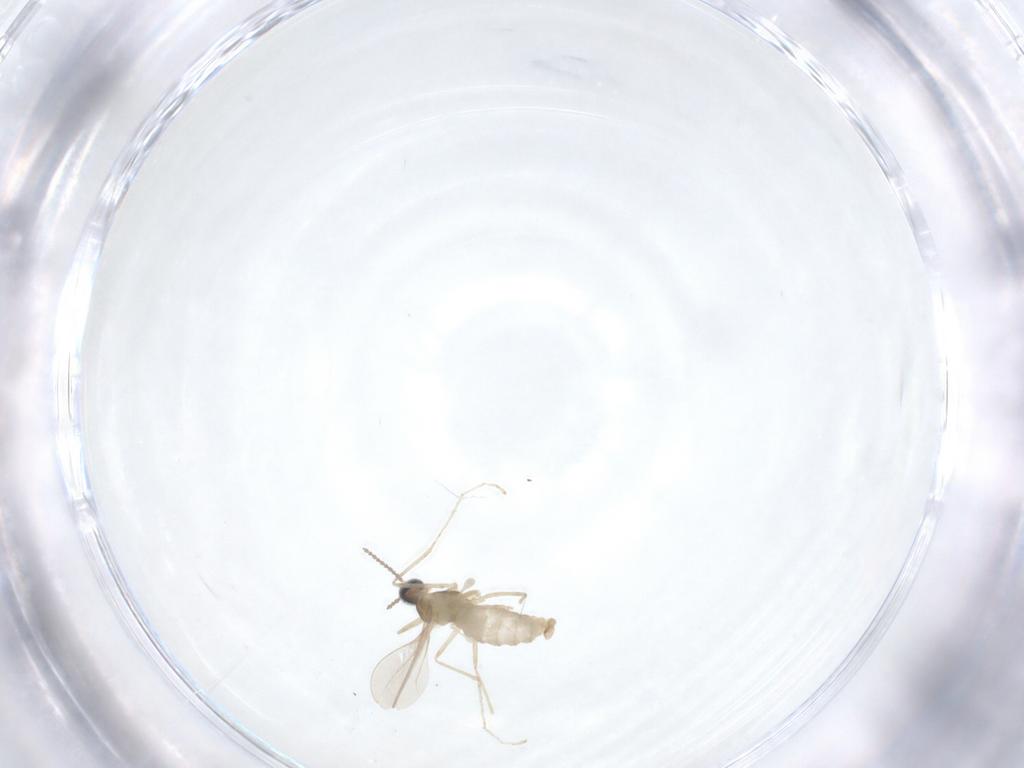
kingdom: Animalia
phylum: Arthropoda
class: Insecta
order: Diptera
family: Cecidomyiidae
